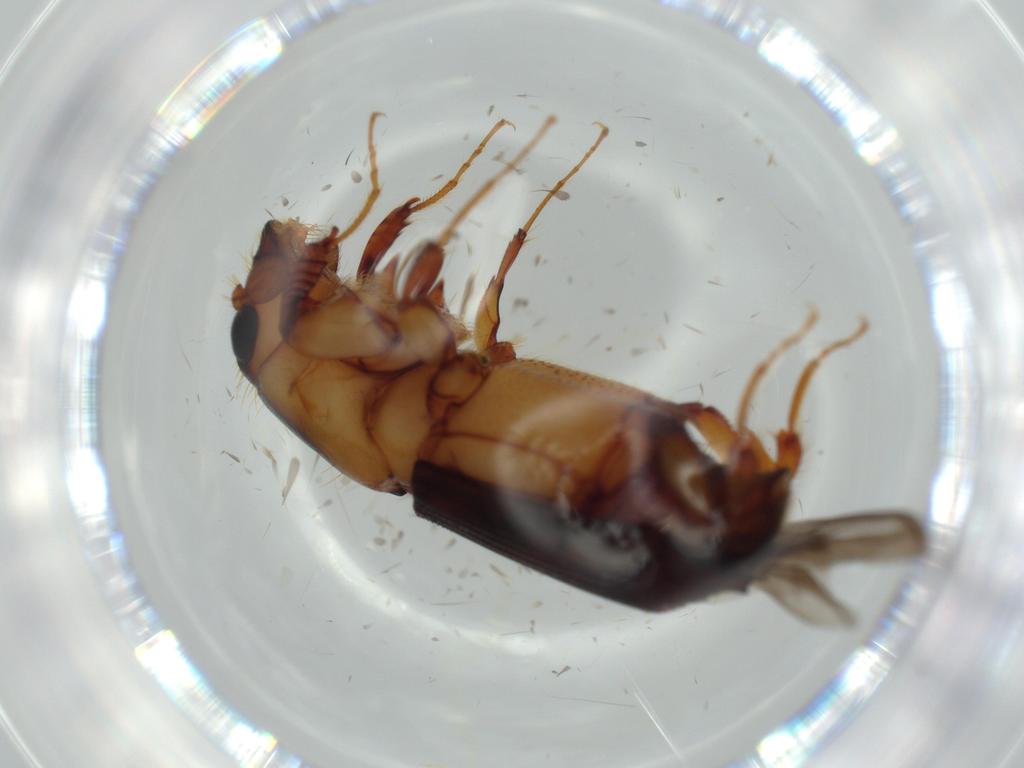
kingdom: Animalia
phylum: Arthropoda
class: Insecta
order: Coleoptera
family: Curculionidae
